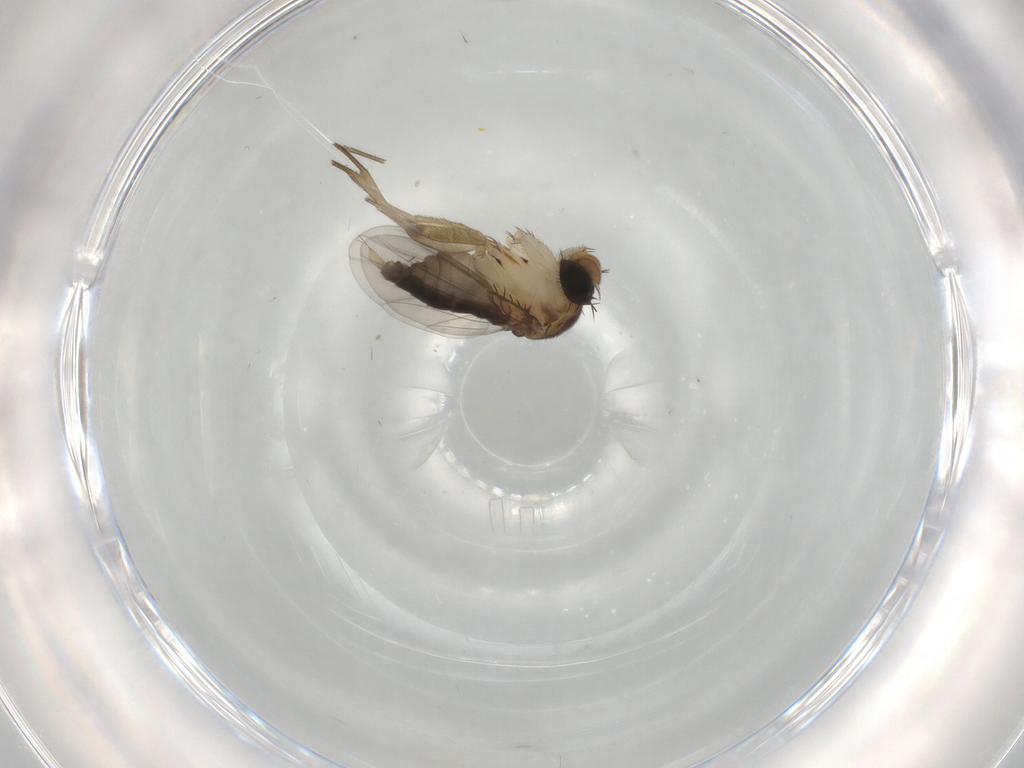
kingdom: Animalia
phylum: Arthropoda
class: Insecta
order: Diptera
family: Phoridae
